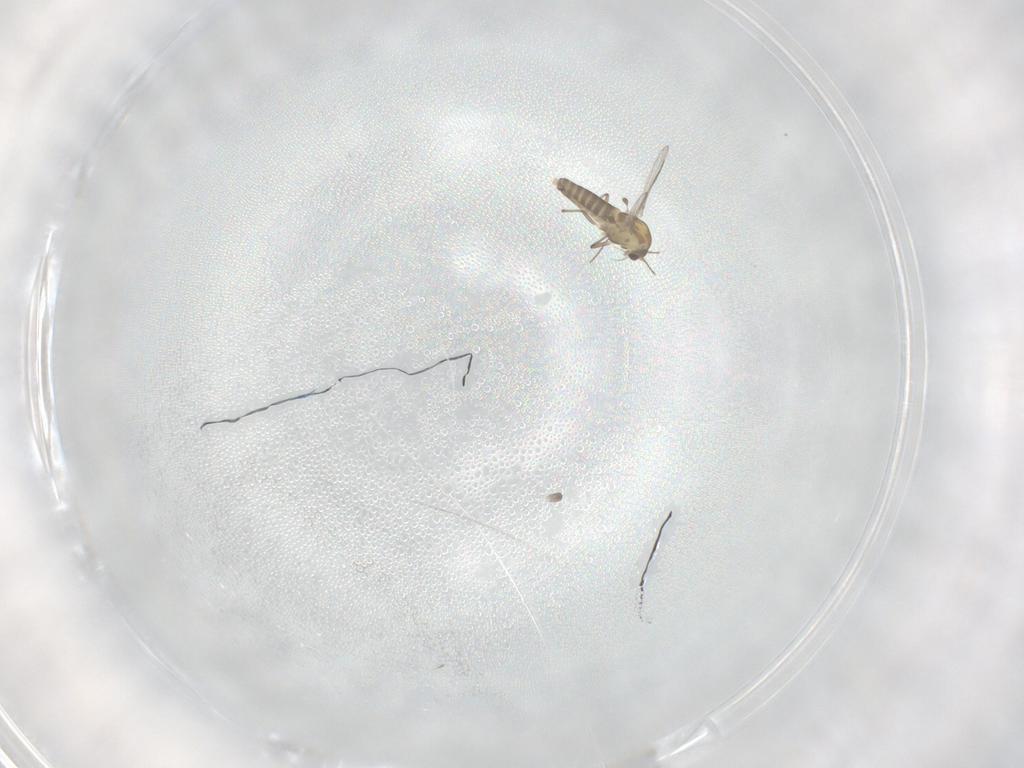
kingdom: Animalia
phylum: Arthropoda
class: Insecta
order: Diptera
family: Chironomidae
